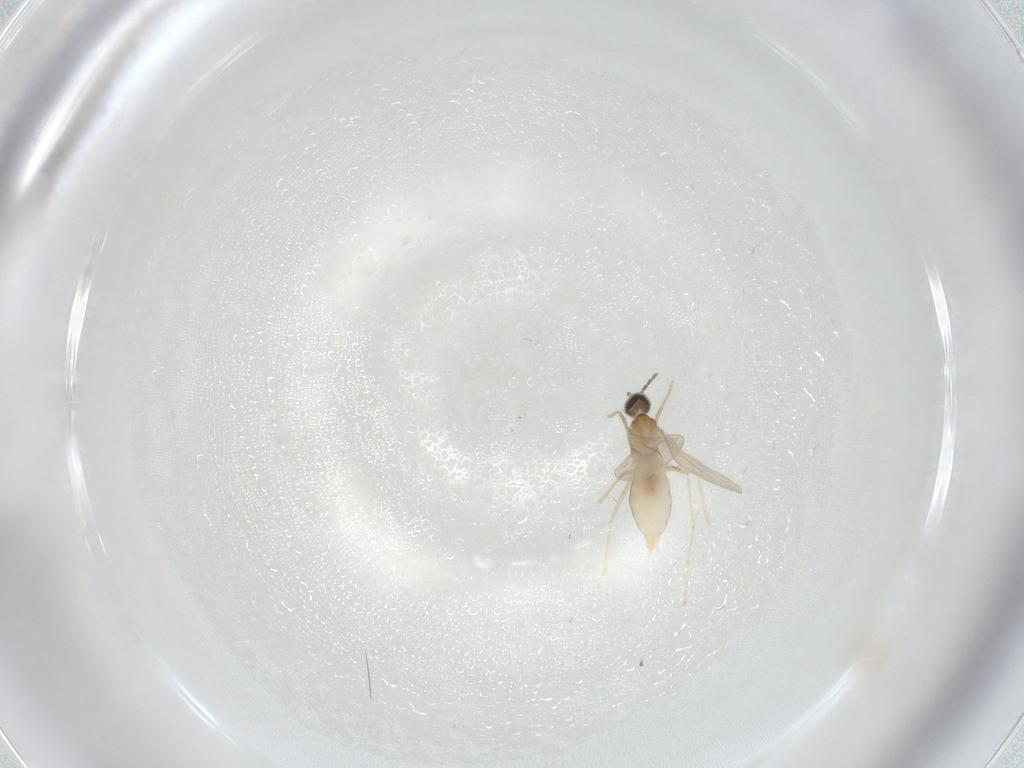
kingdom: Animalia
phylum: Arthropoda
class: Insecta
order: Diptera
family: Cecidomyiidae
